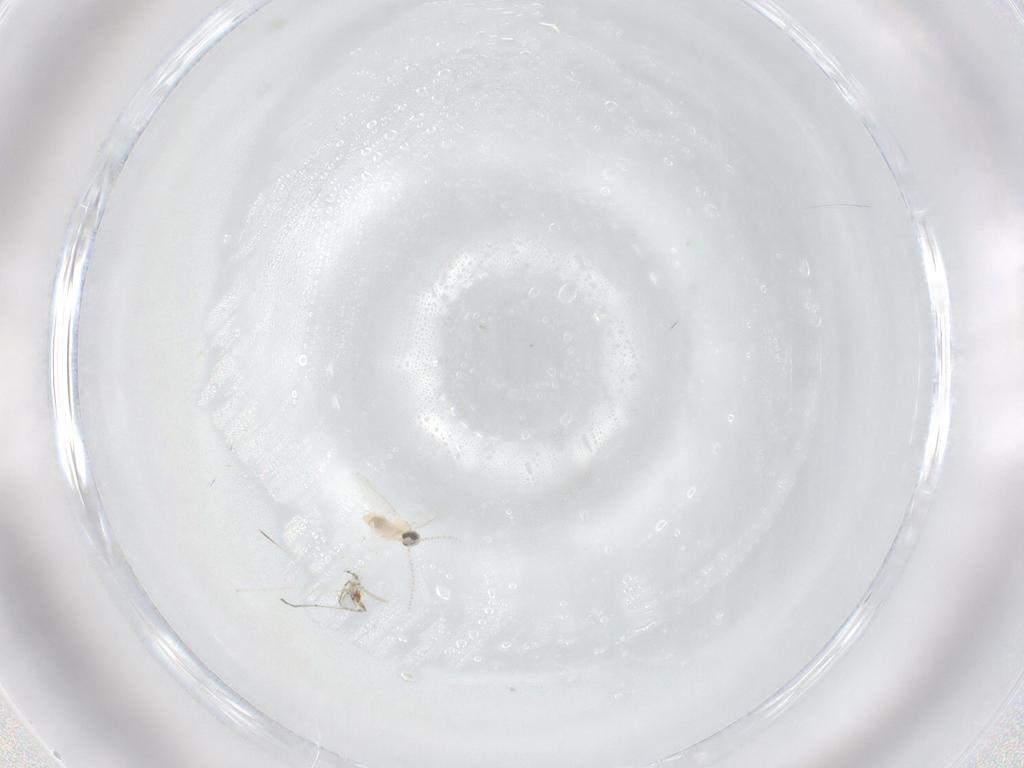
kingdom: Animalia
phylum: Arthropoda
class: Insecta
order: Diptera
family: Cecidomyiidae
